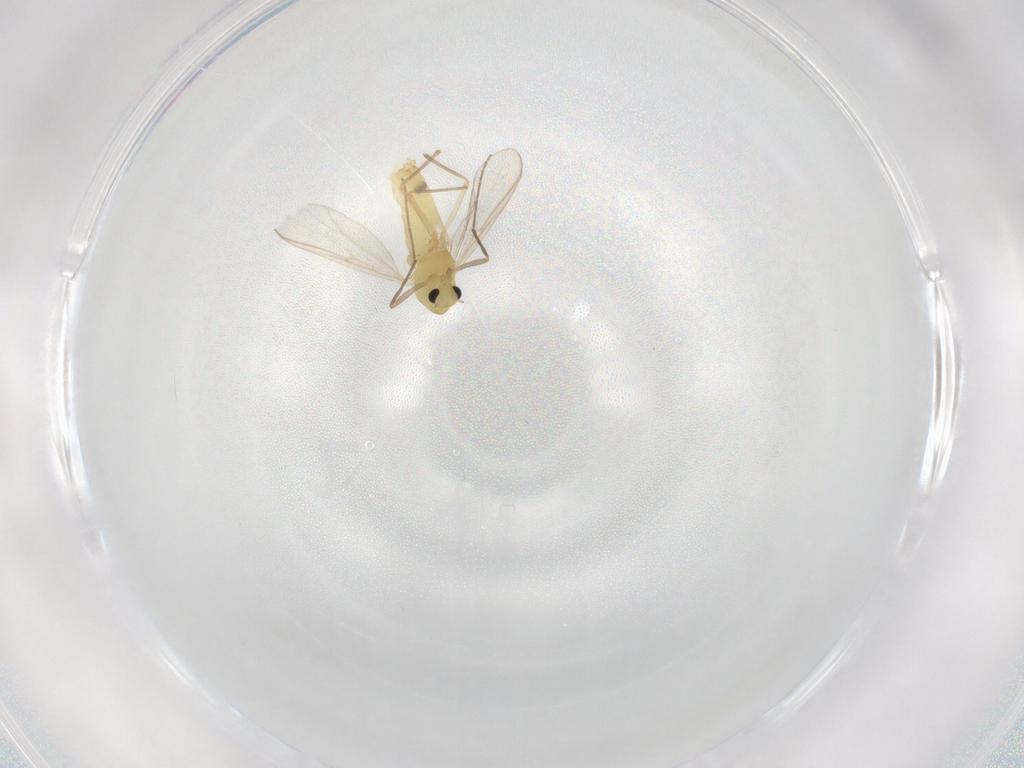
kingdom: Animalia
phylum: Arthropoda
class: Insecta
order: Diptera
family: Chironomidae
